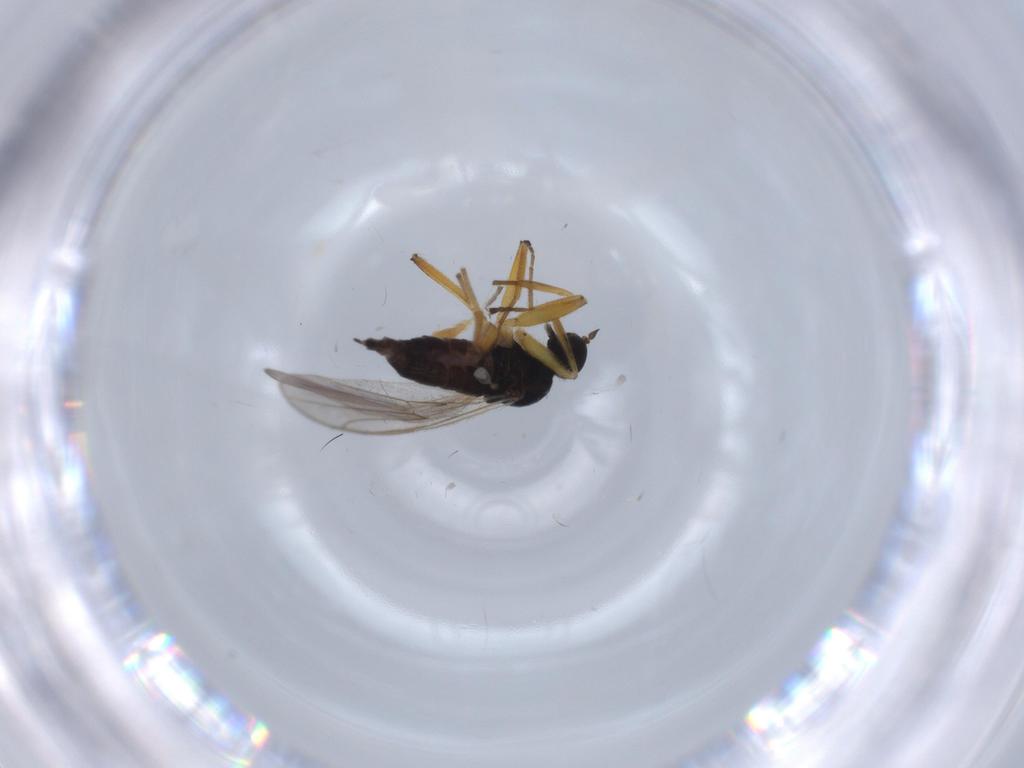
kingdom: Animalia
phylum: Arthropoda
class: Insecta
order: Diptera
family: Hybotidae
